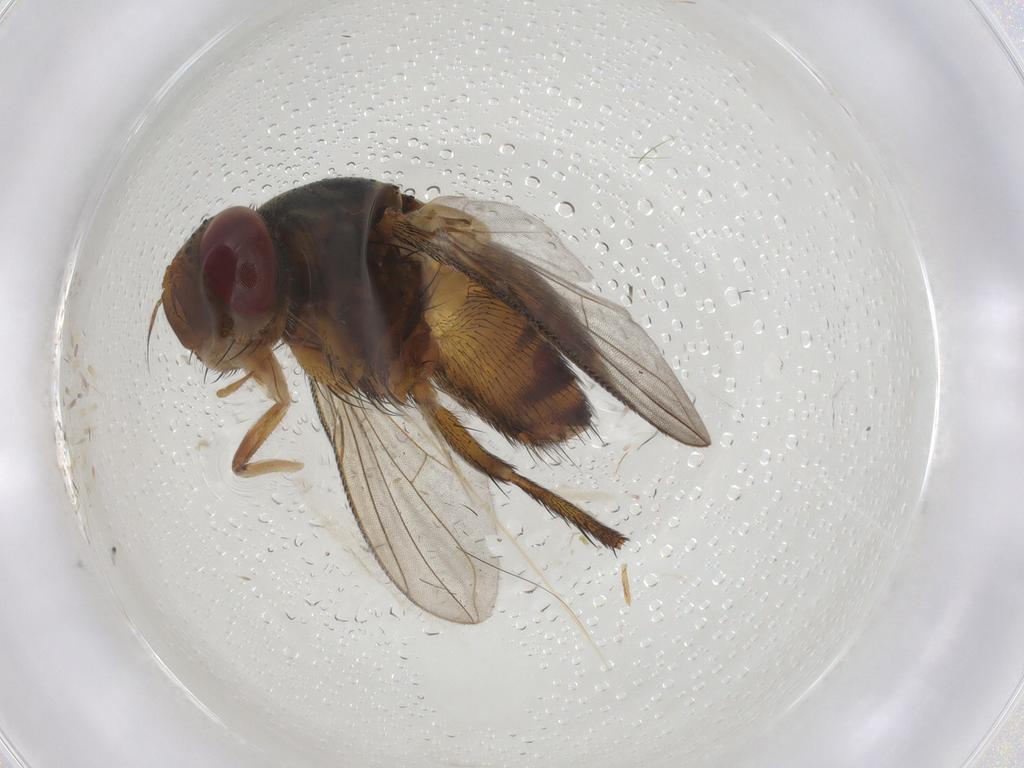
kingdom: Animalia
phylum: Arthropoda
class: Insecta
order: Diptera
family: Tachinidae
